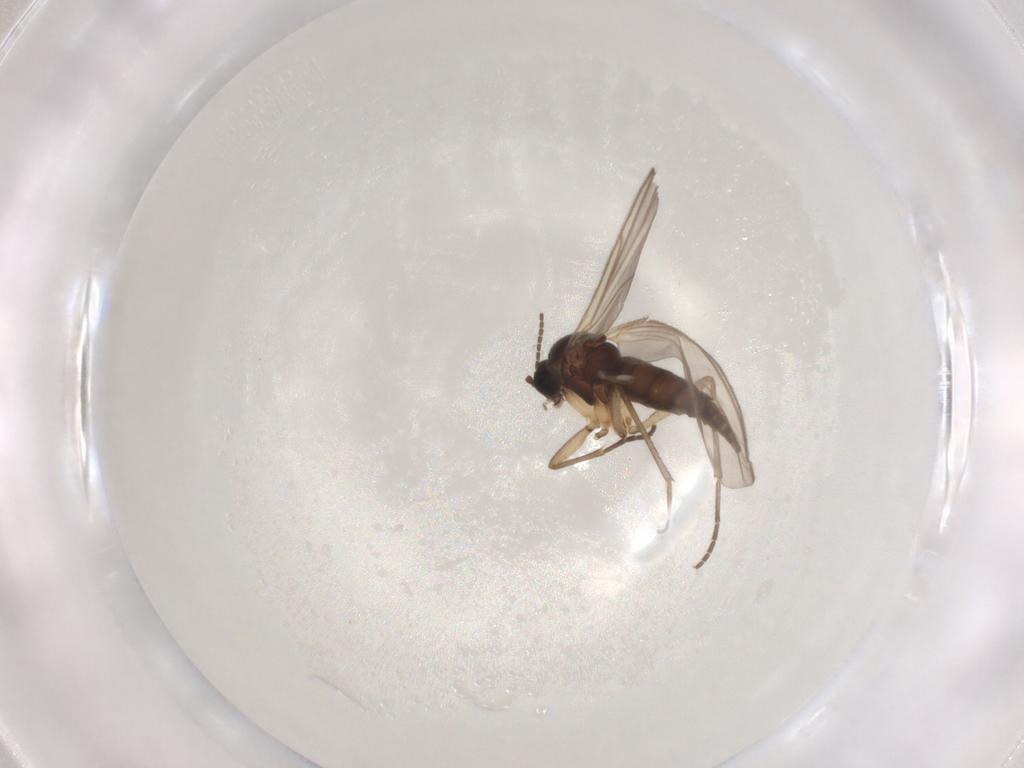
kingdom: Animalia
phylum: Arthropoda
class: Insecta
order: Diptera
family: Sciaridae
